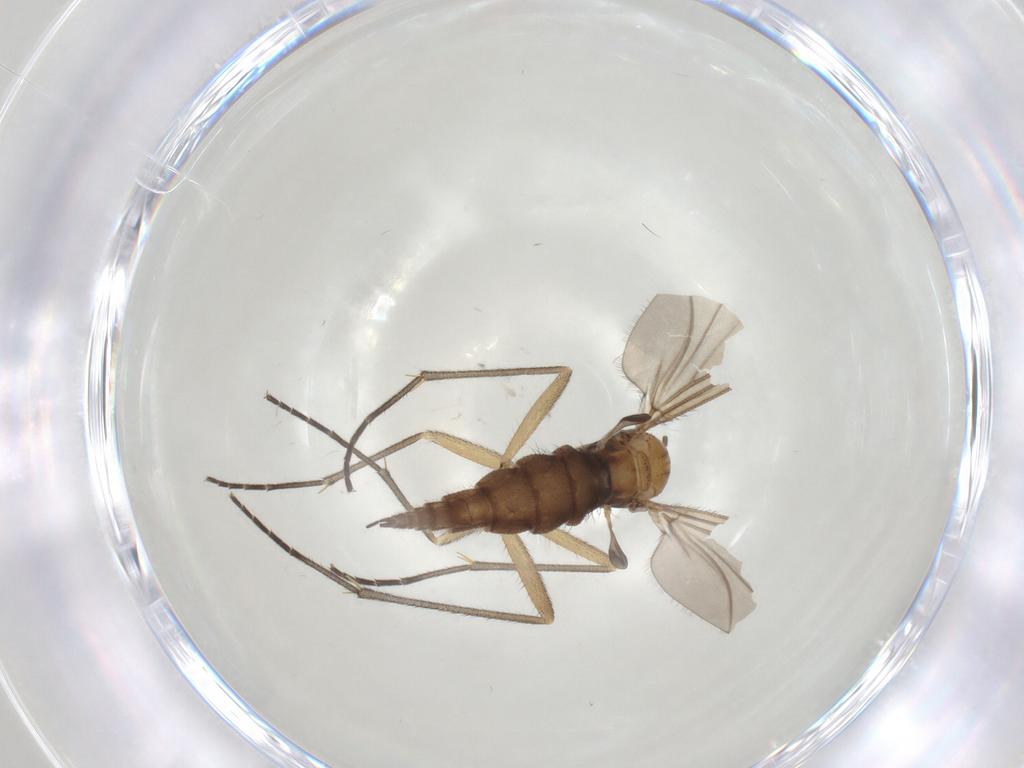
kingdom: Animalia
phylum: Arthropoda
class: Insecta
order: Diptera
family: Sciaridae
